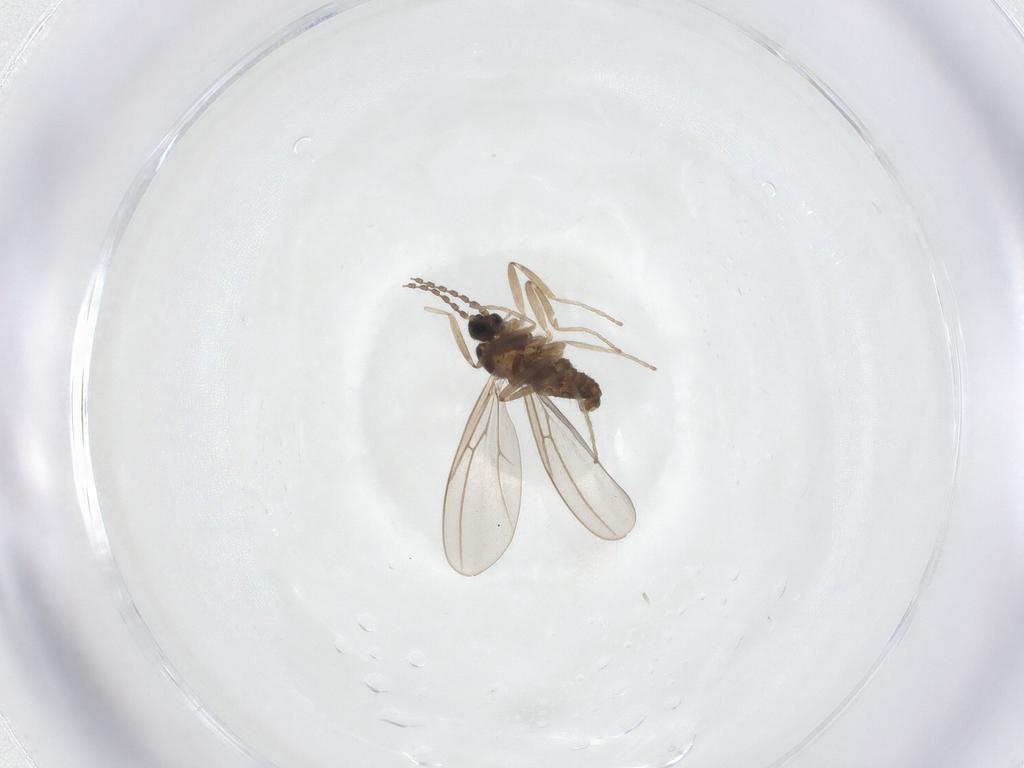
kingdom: Animalia
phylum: Arthropoda
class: Insecta
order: Diptera
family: Cecidomyiidae
